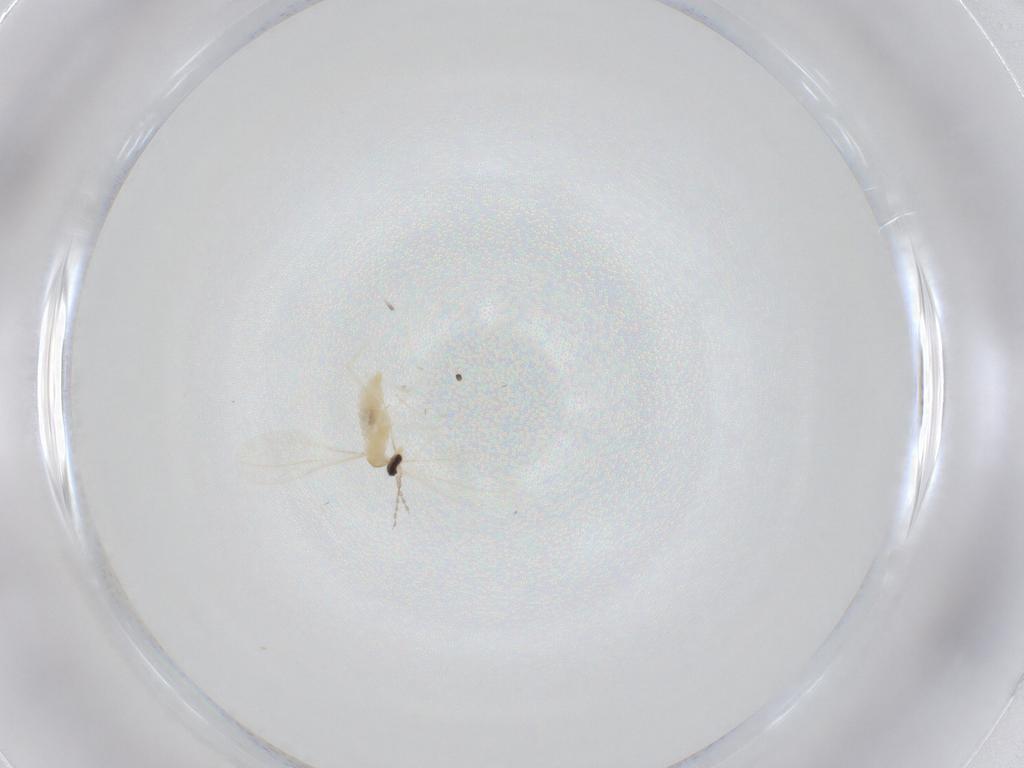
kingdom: Animalia
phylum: Arthropoda
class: Insecta
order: Diptera
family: Cecidomyiidae
